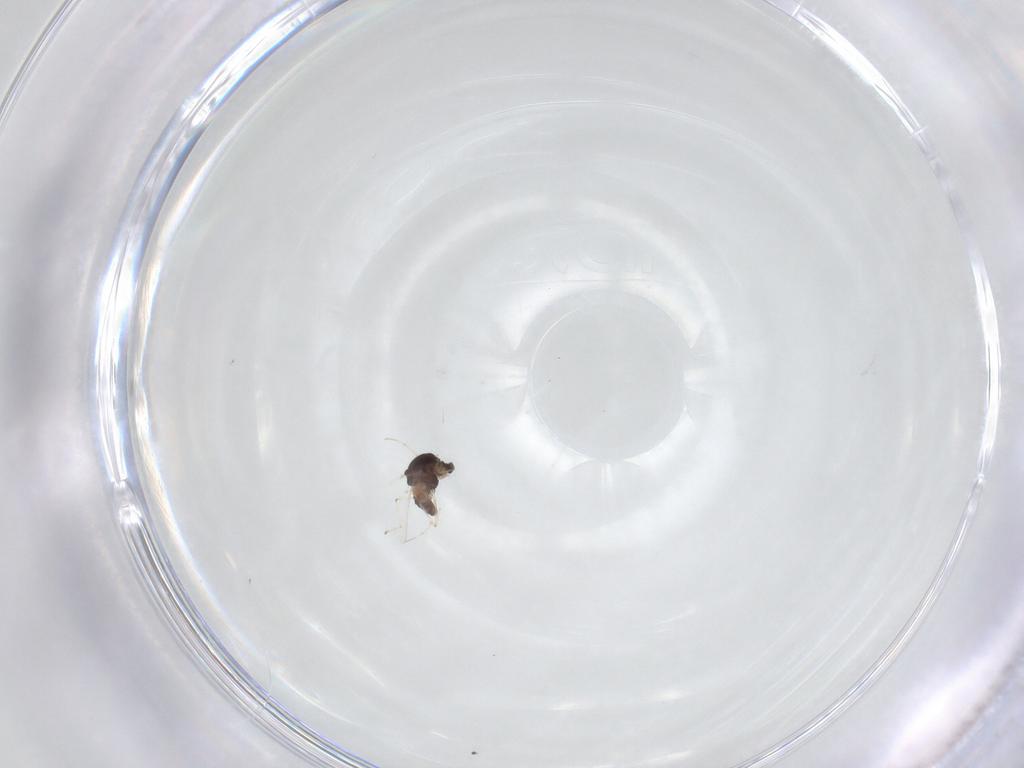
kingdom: Animalia
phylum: Arthropoda
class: Insecta
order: Diptera
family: Chironomidae
